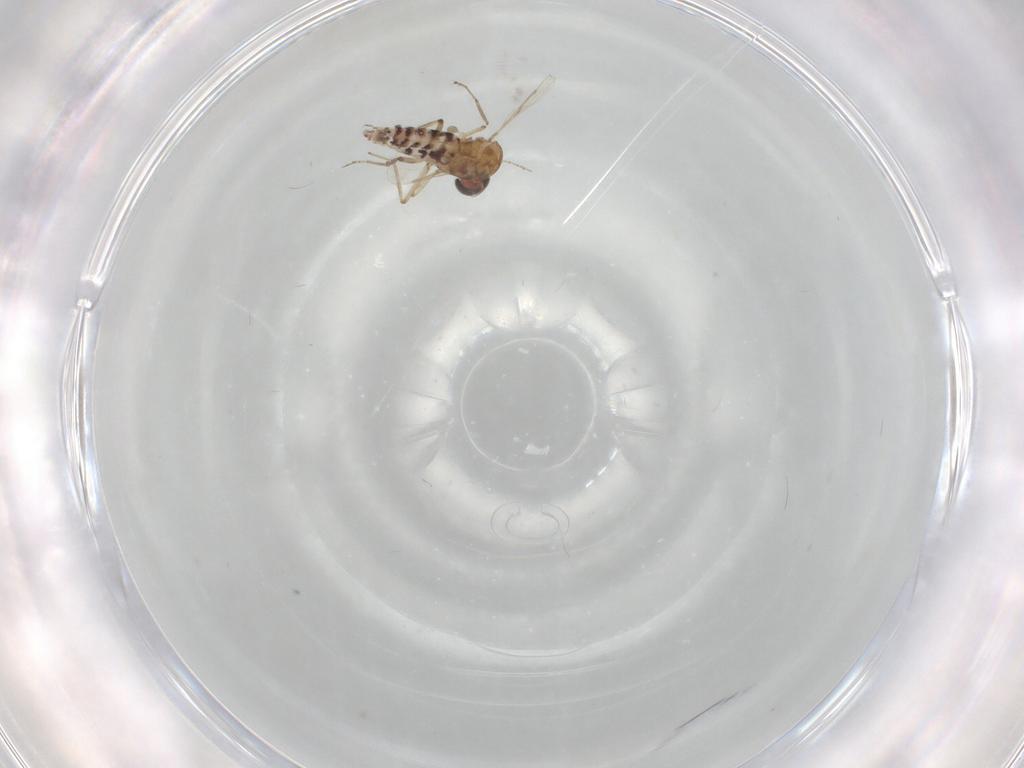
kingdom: Animalia
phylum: Arthropoda
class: Insecta
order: Diptera
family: Ceratopogonidae
